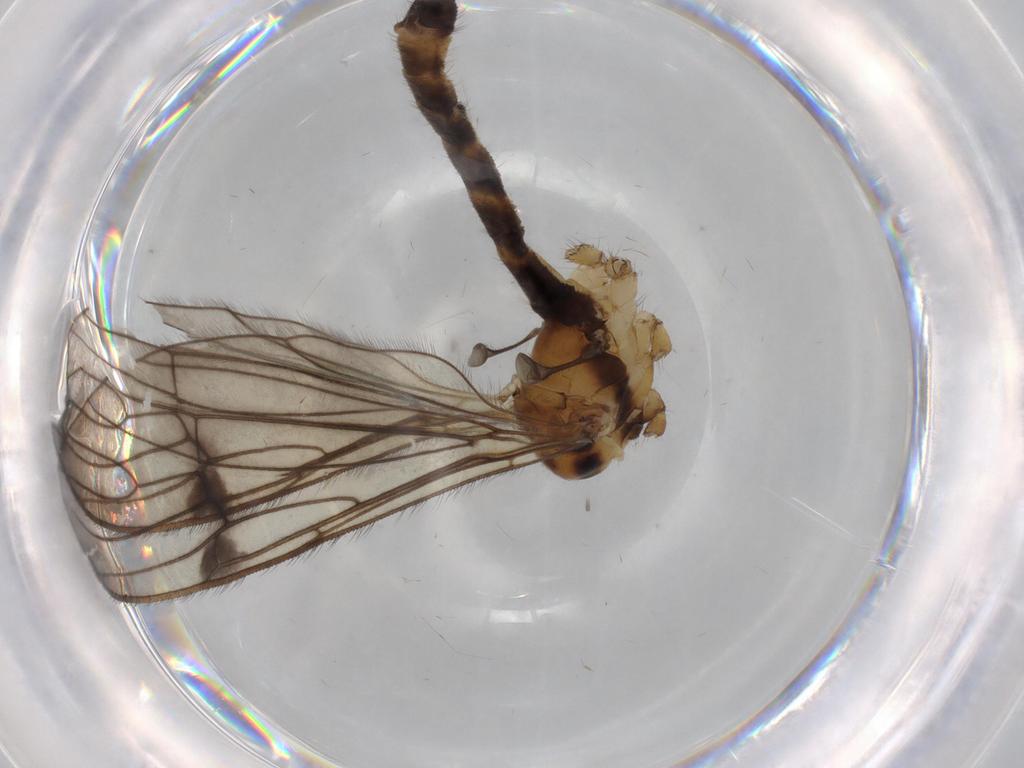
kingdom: Animalia
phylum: Arthropoda
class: Insecta
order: Diptera
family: Limoniidae
